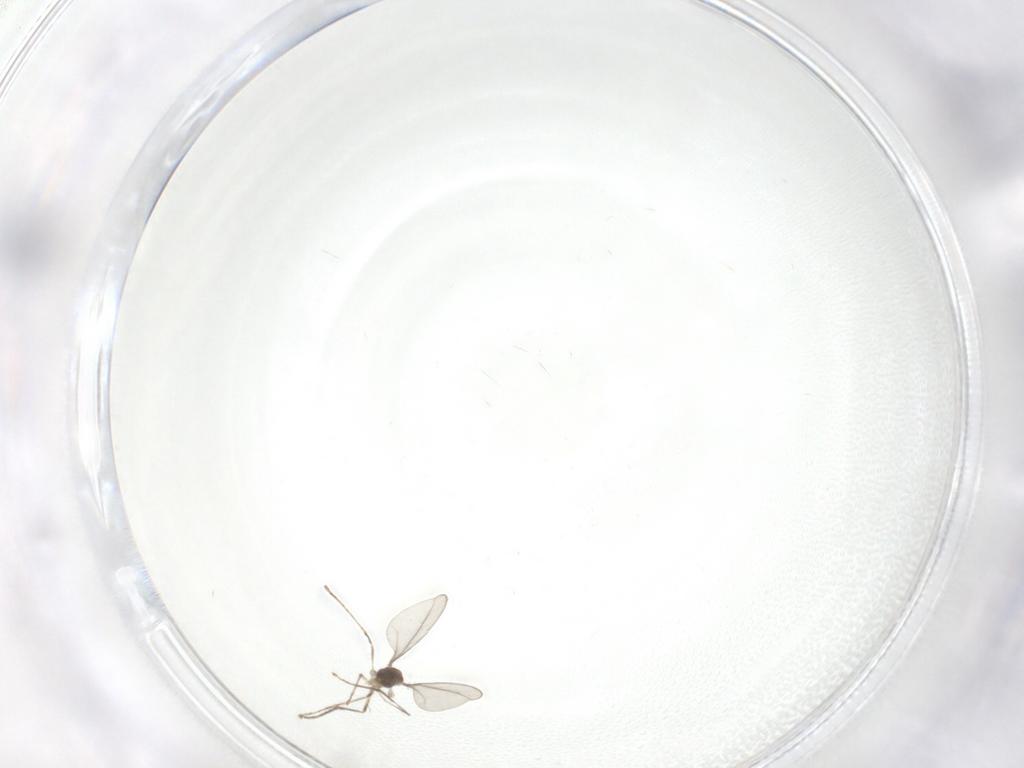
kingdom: Animalia
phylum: Arthropoda
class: Insecta
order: Diptera
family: Cecidomyiidae
